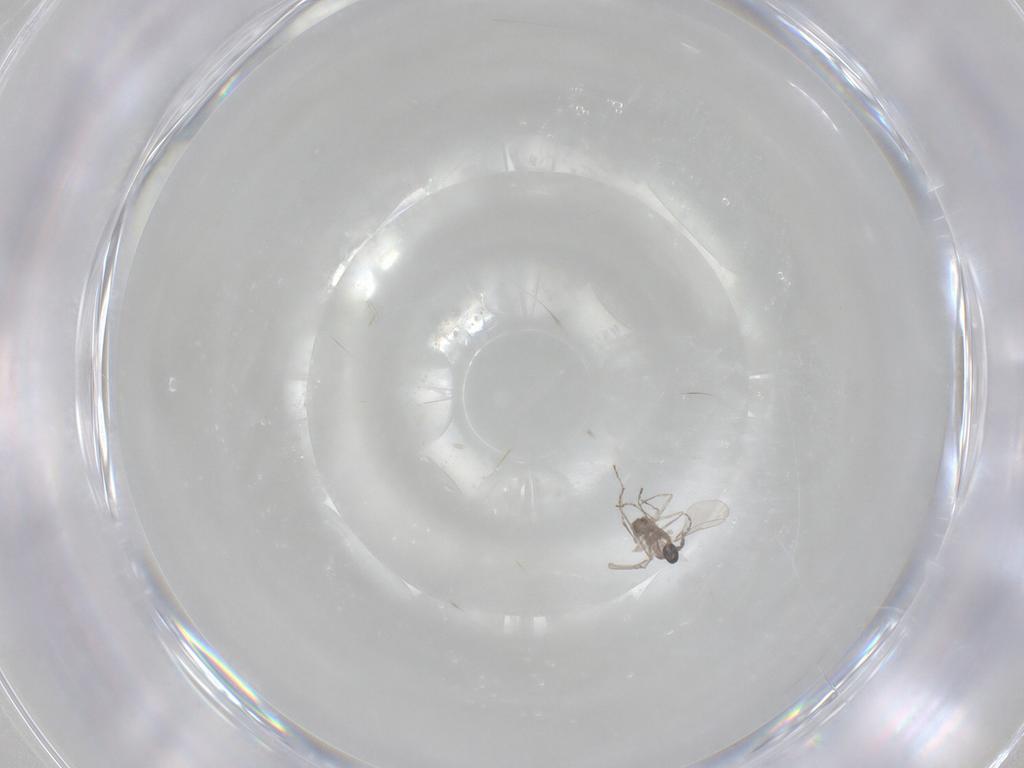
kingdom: Animalia
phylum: Arthropoda
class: Insecta
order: Diptera
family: Cecidomyiidae
